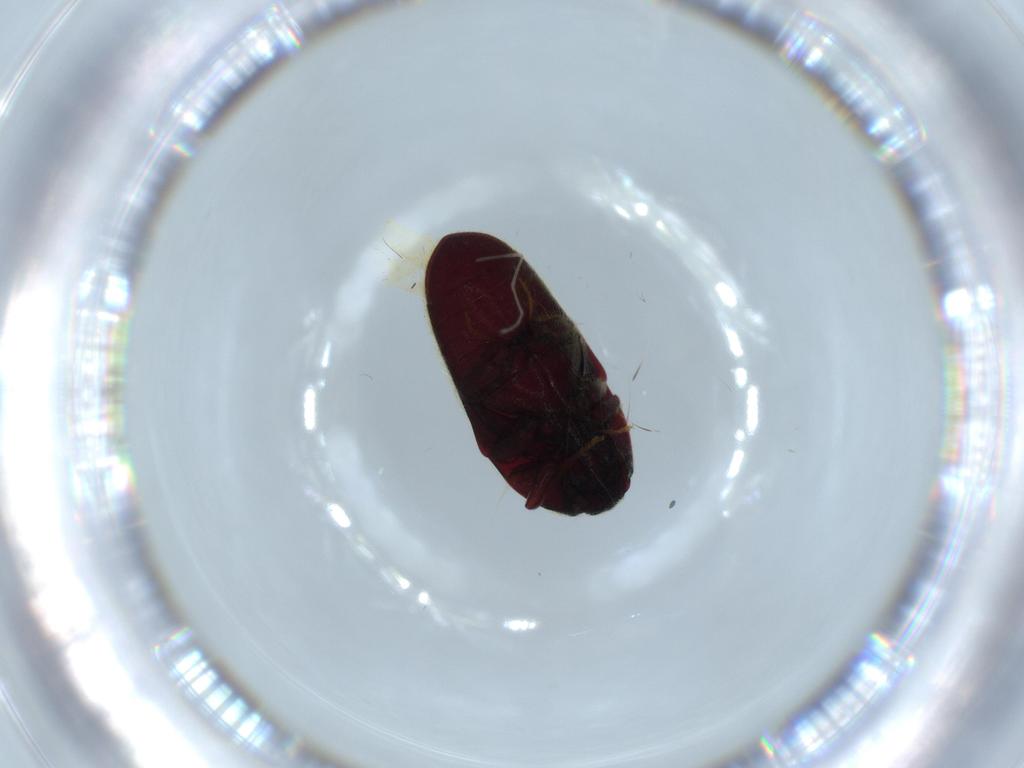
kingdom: Animalia
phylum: Arthropoda
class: Insecta
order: Coleoptera
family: Throscidae
